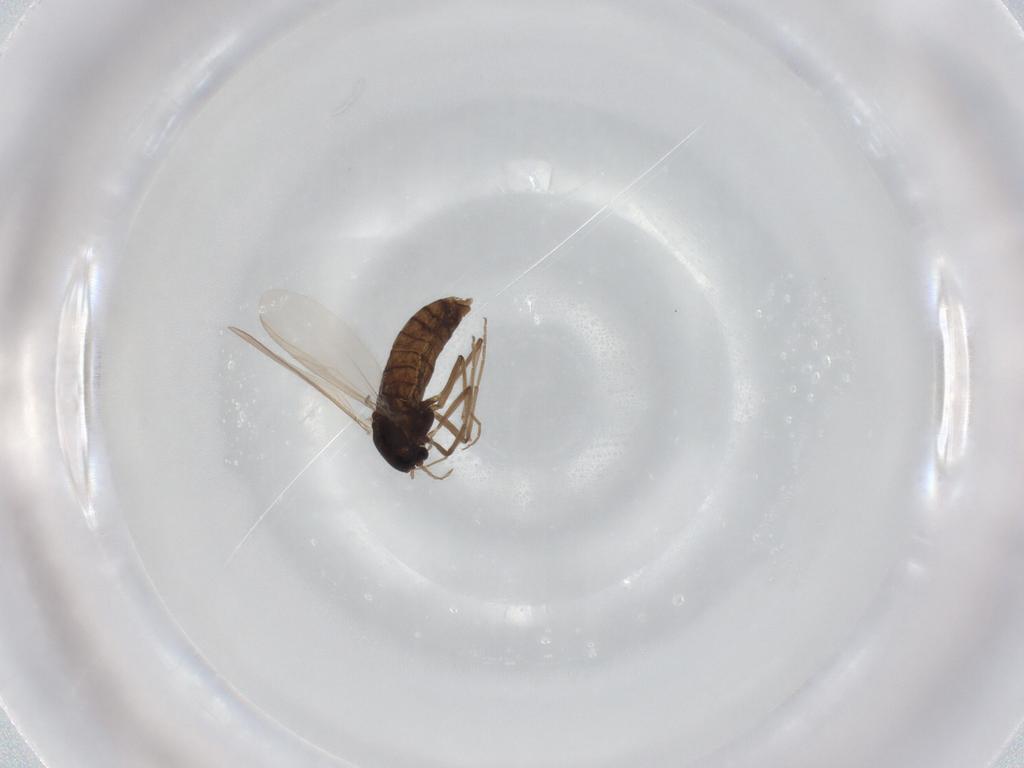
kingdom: Animalia
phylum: Arthropoda
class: Insecta
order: Diptera
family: Chironomidae
